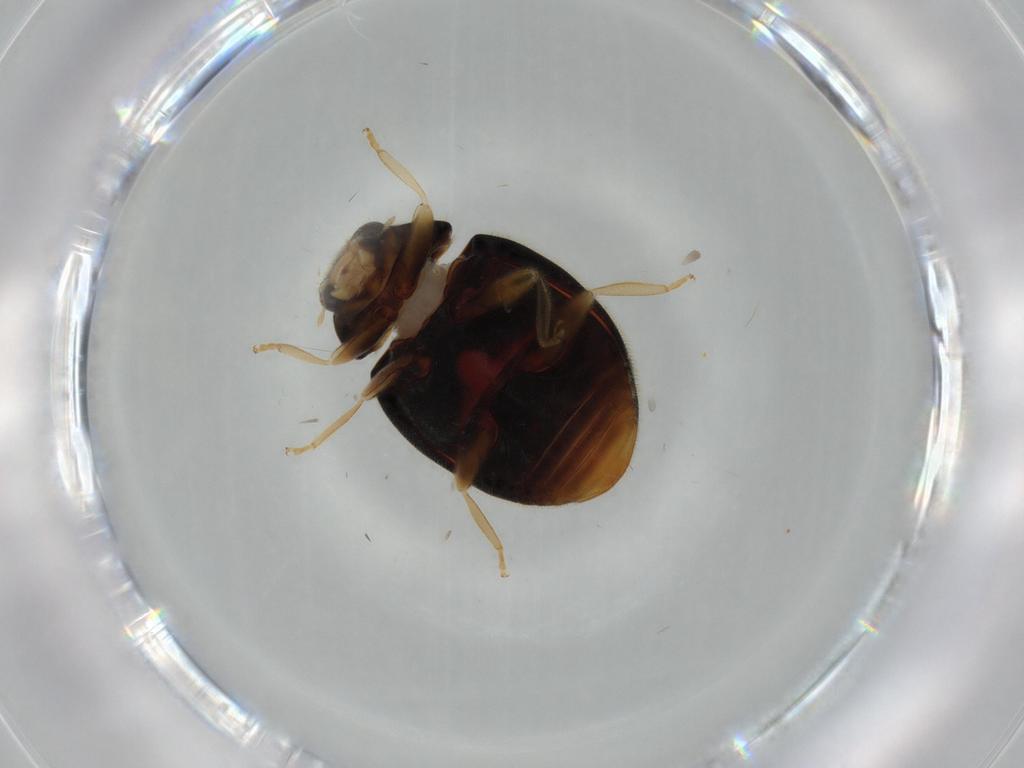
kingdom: Animalia
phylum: Arthropoda
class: Insecta
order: Coleoptera
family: Coccinellidae
